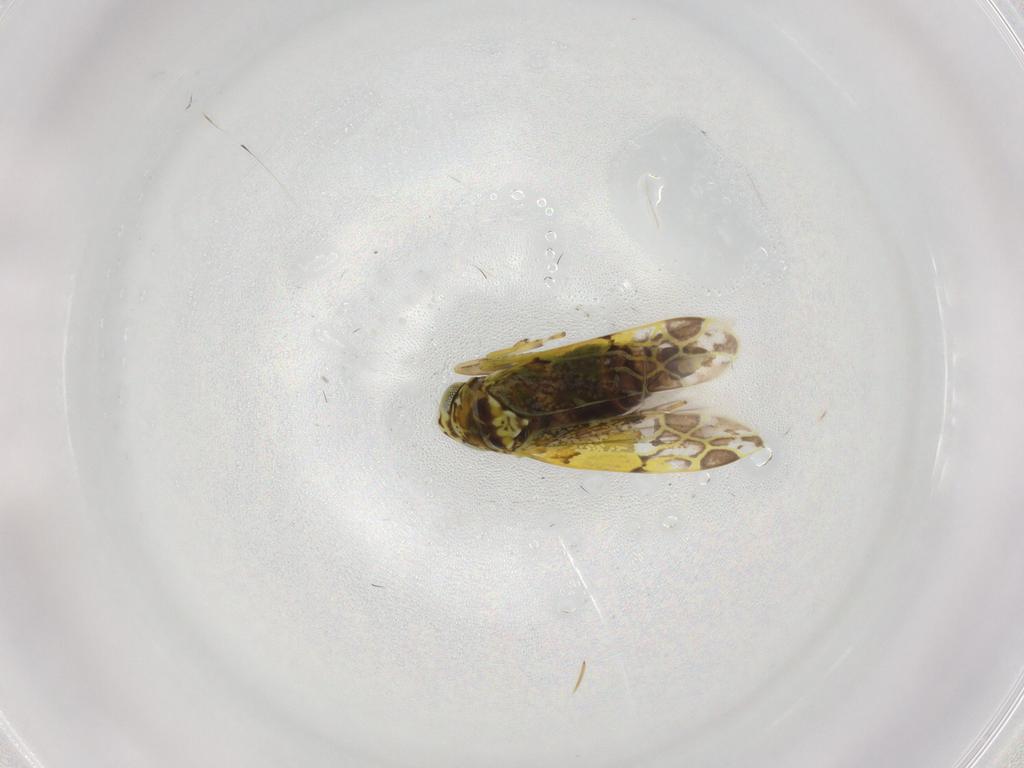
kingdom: Animalia
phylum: Arthropoda
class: Insecta
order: Hemiptera
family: Cicadellidae
